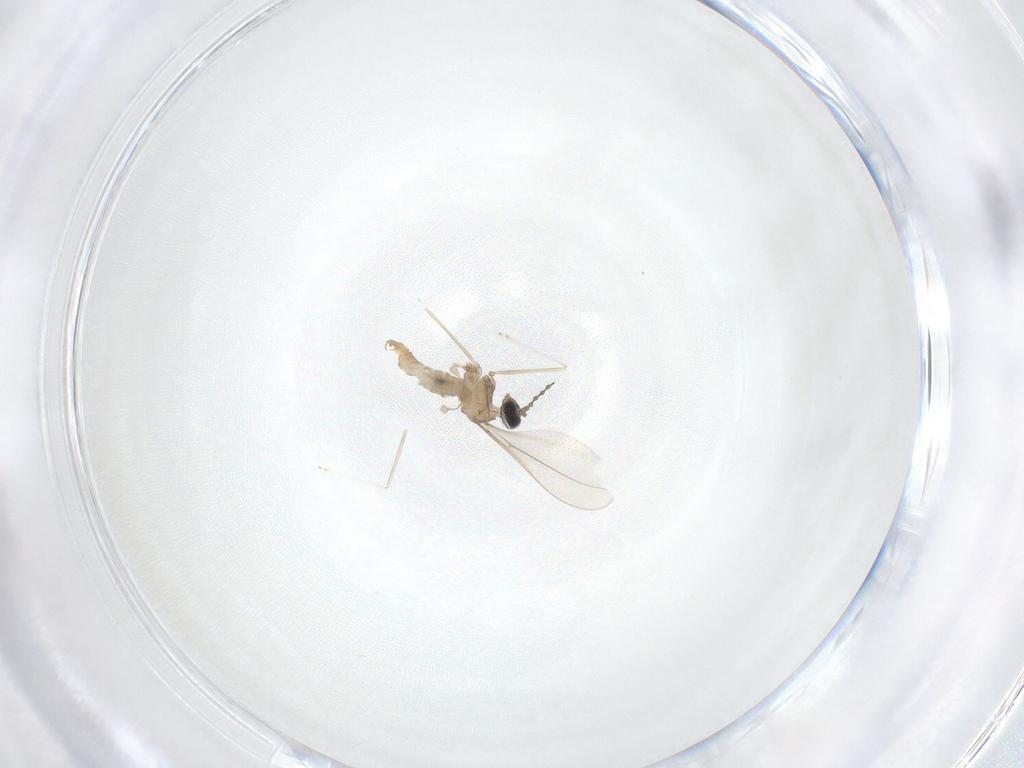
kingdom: Animalia
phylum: Arthropoda
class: Insecta
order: Diptera
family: Cecidomyiidae
